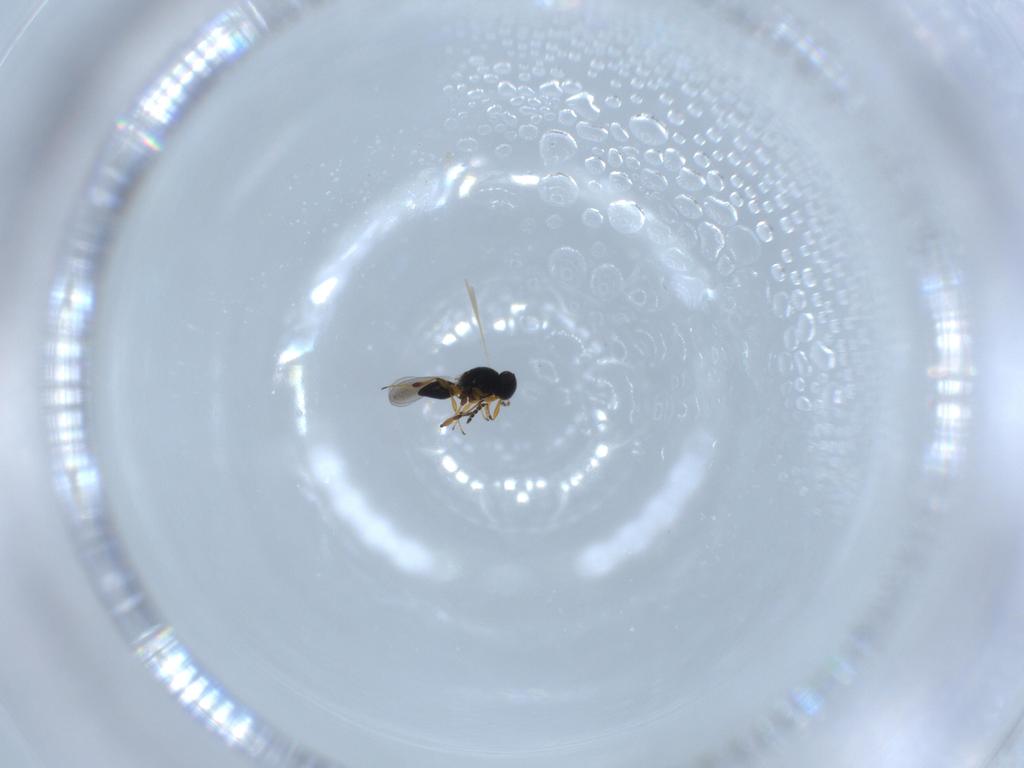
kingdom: Animalia
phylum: Arthropoda
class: Insecta
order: Hymenoptera
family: Platygastridae
